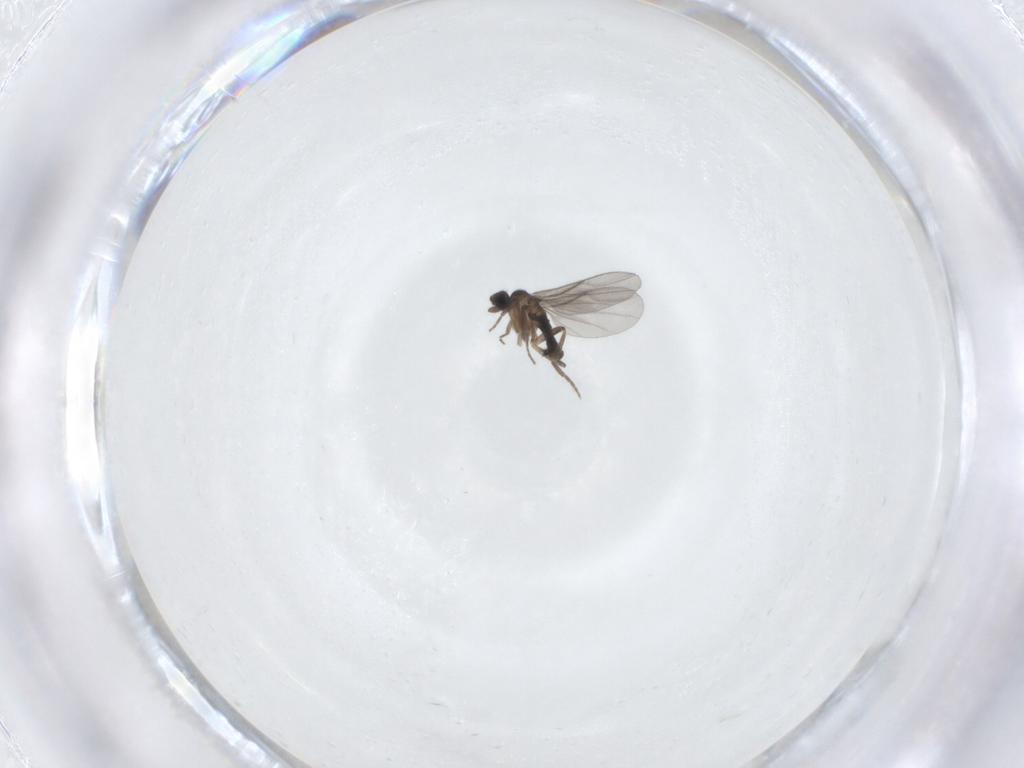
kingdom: Animalia
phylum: Arthropoda
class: Insecta
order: Diptera
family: Phoridae
